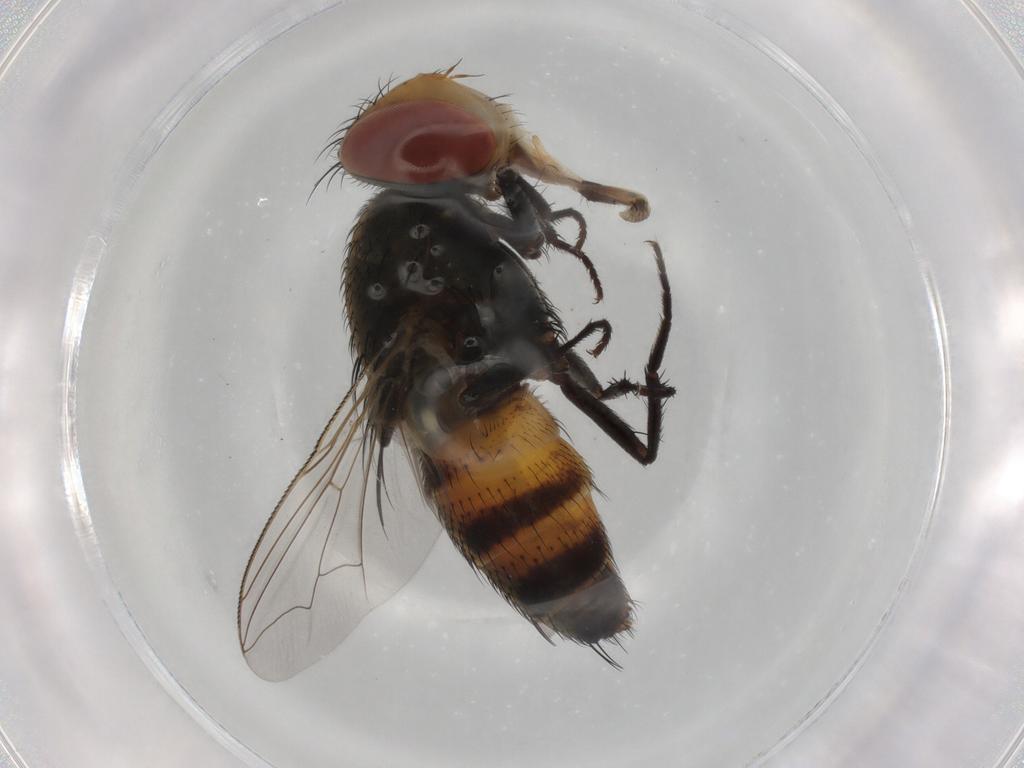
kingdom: Animalia
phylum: Arthropoda
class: Insecta
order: Diptera
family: Sarcophagidae
